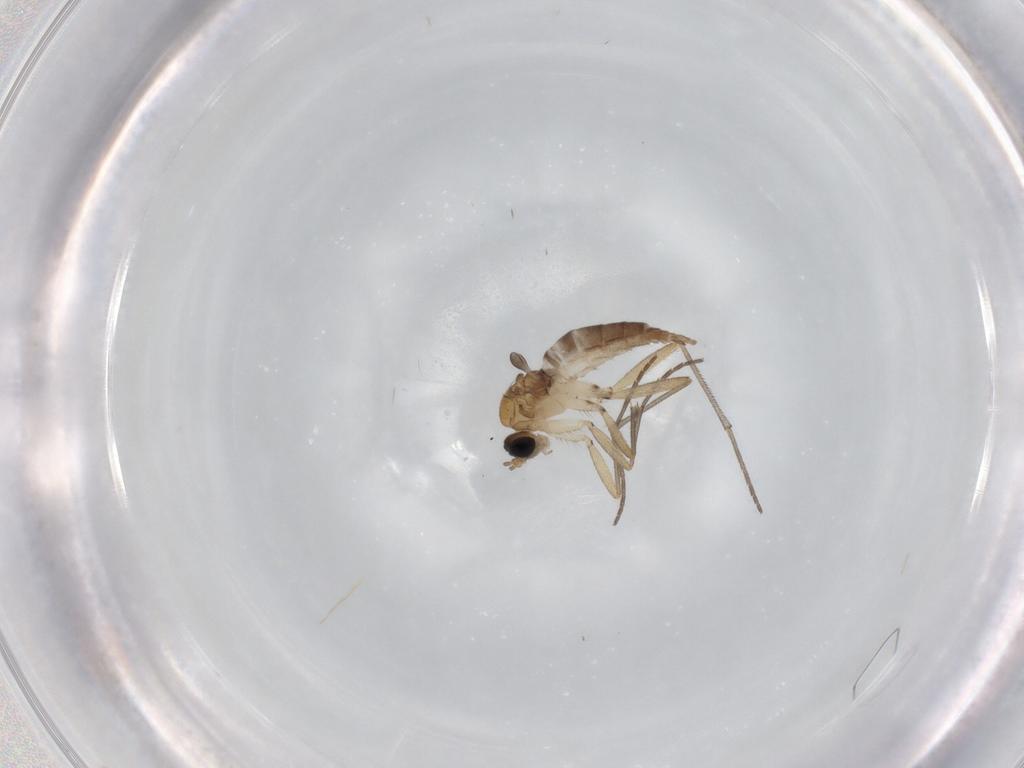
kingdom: Animalia
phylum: Arthropoda
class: Insecta
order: Diptera
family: Sciaridae
